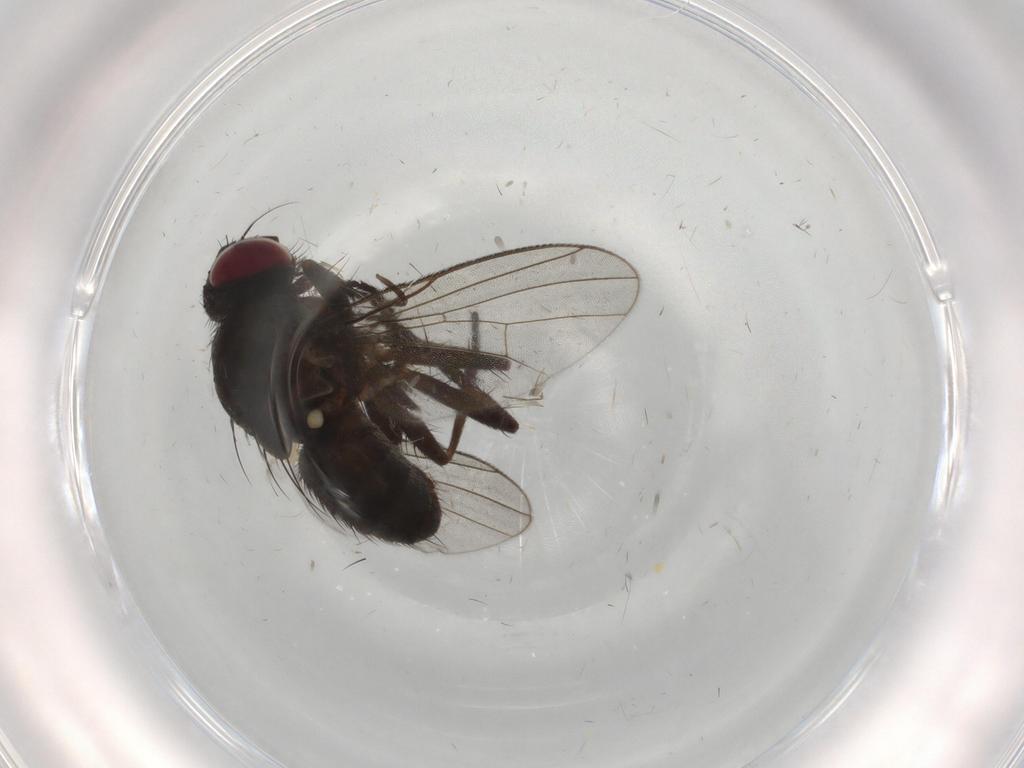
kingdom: Animalia
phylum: Arthropoda
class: Insecta
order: Diptera
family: Muscidae
